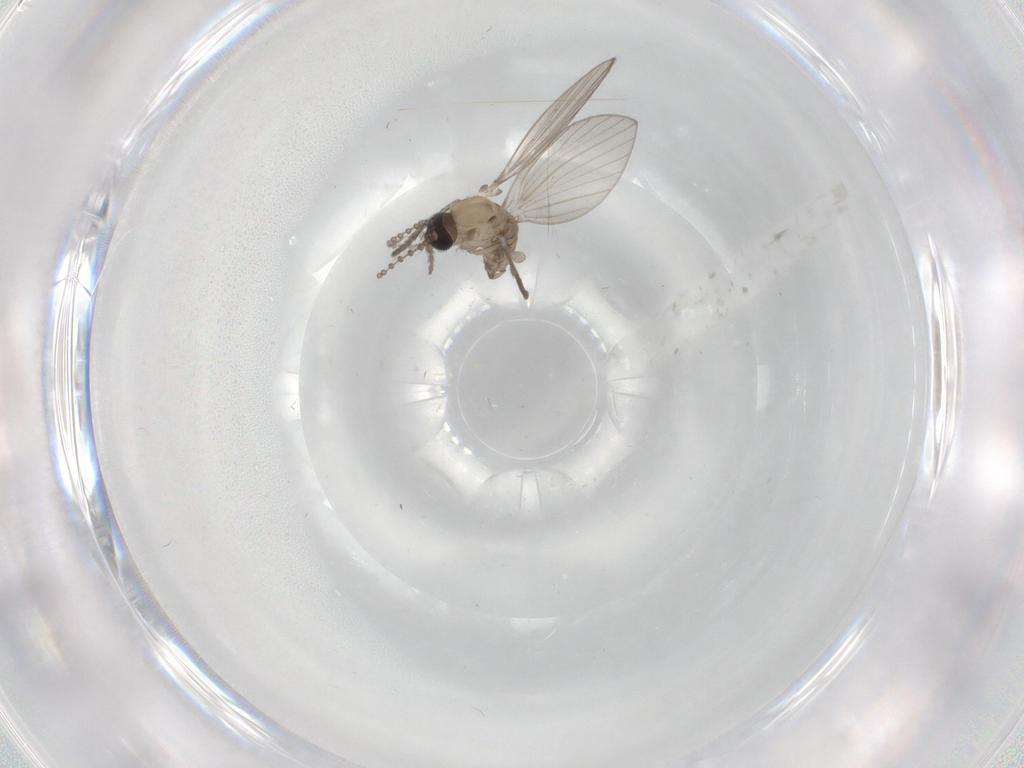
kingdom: Animalia
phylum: Arthropoda
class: Insecta
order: Diptera
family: Psychodidae
